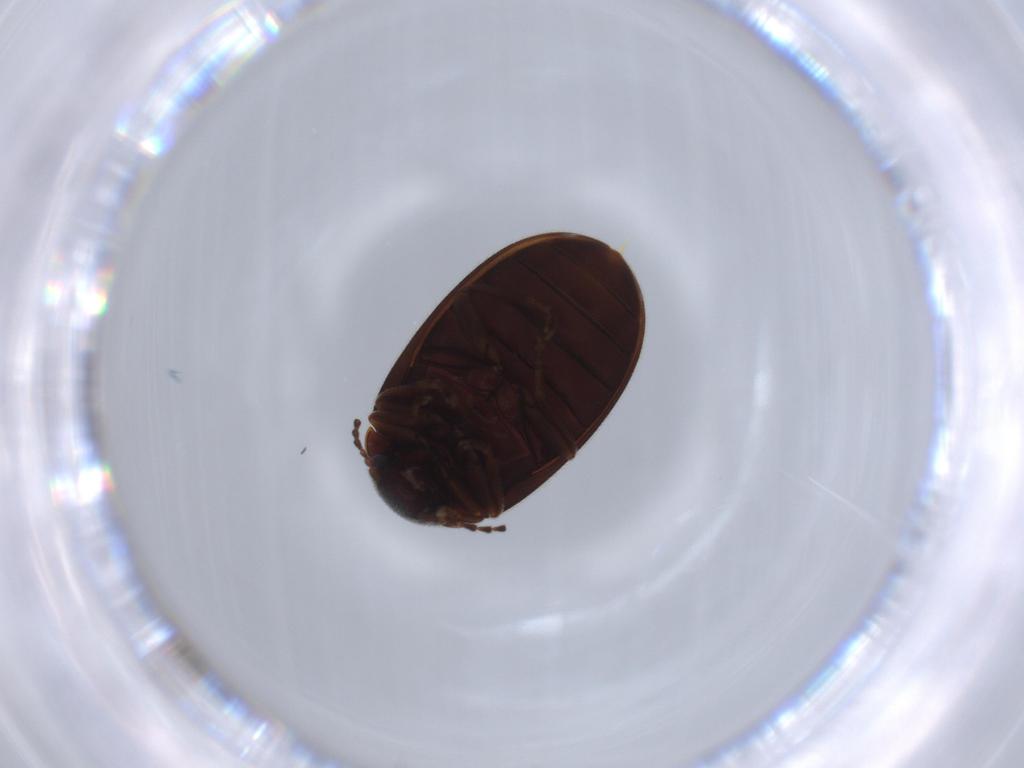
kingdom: Animalia
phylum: Arthropoda
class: Insecta
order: Coleoptera
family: Scirtidae
